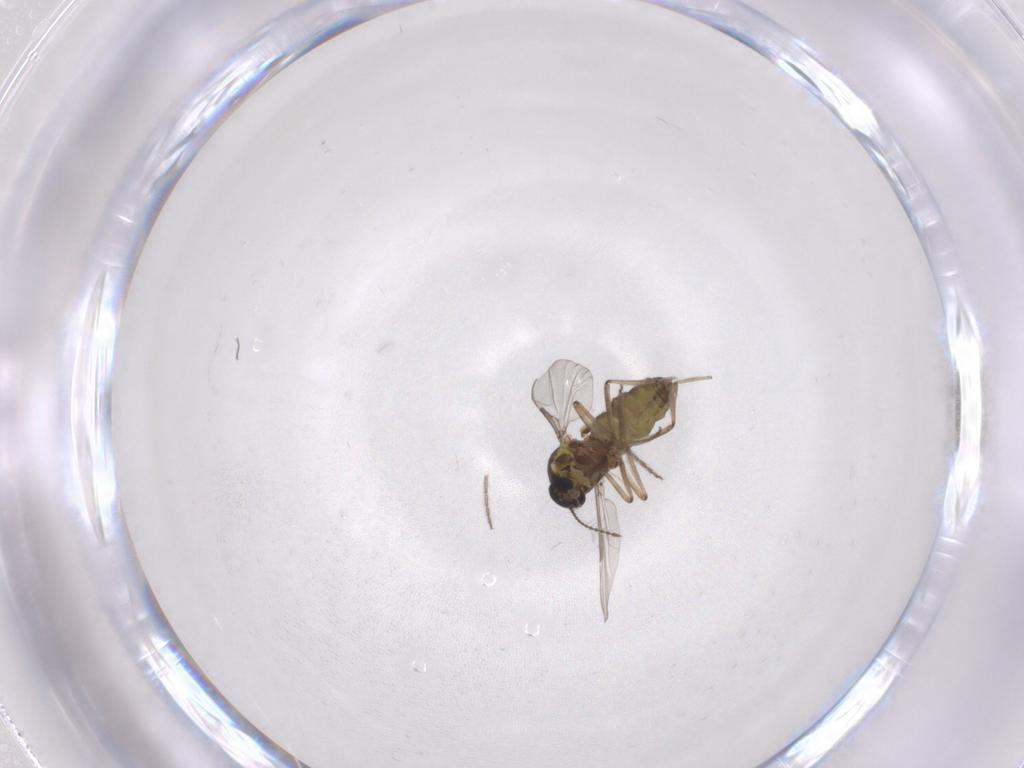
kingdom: Animalia
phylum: Arthropoda
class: Insecta
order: Diptera
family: Ceratopogonidae
